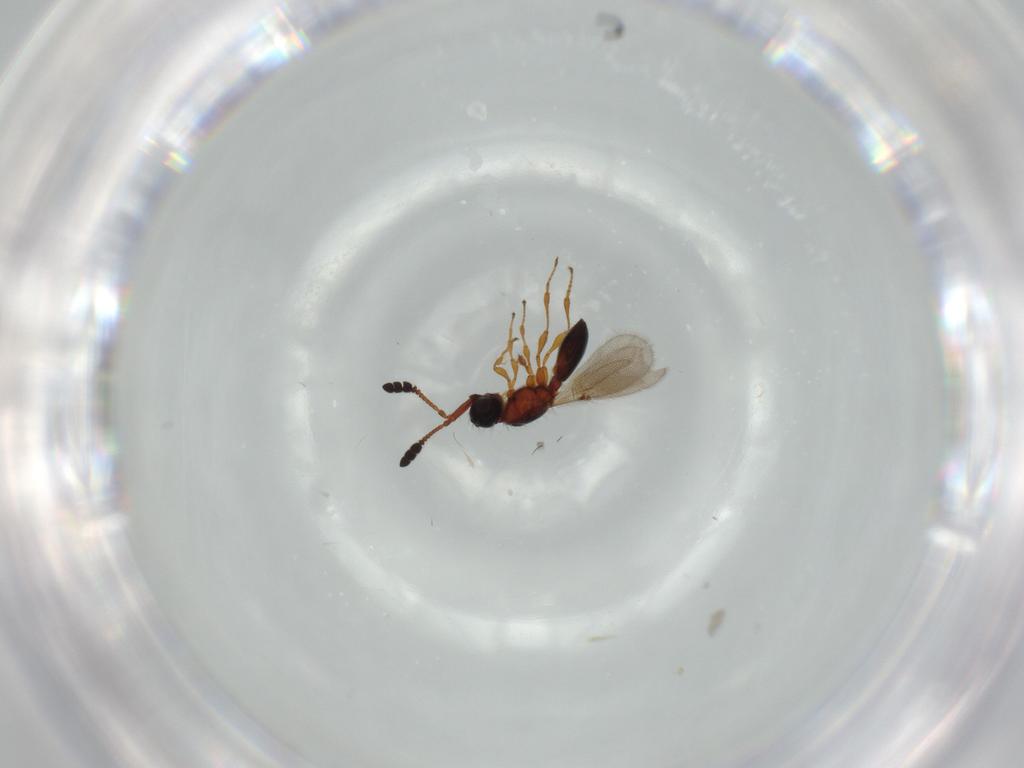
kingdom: Animalia
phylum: Arthropoda
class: Insecta
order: Hymenoptera
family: Diapriidae
